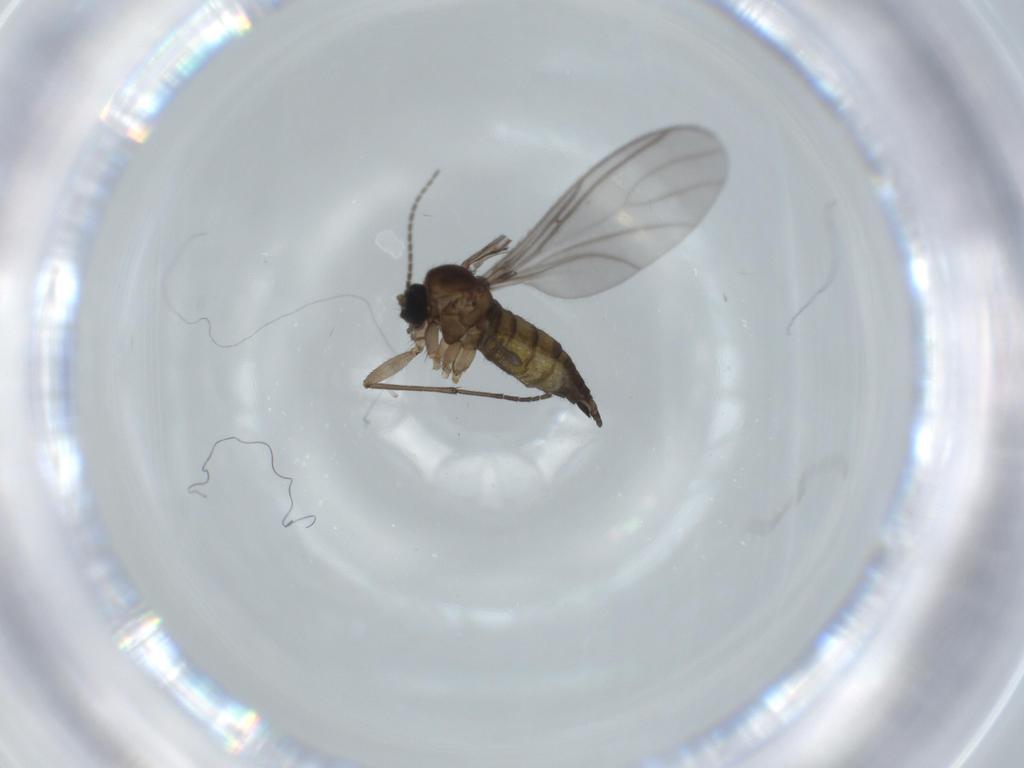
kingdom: Animalia
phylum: Arthropoda
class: Insecta
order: Diptera
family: Sciaridae
